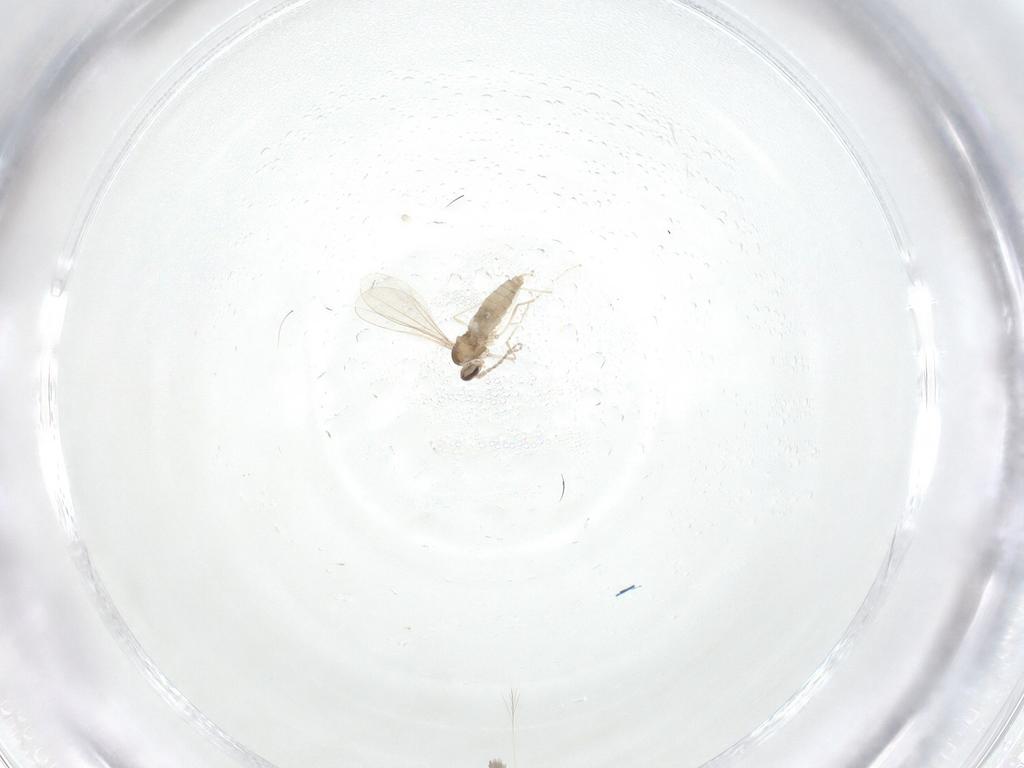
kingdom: Animalia
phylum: Arthropoda
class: Insecta
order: Diptera
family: Cecidomyiidae
